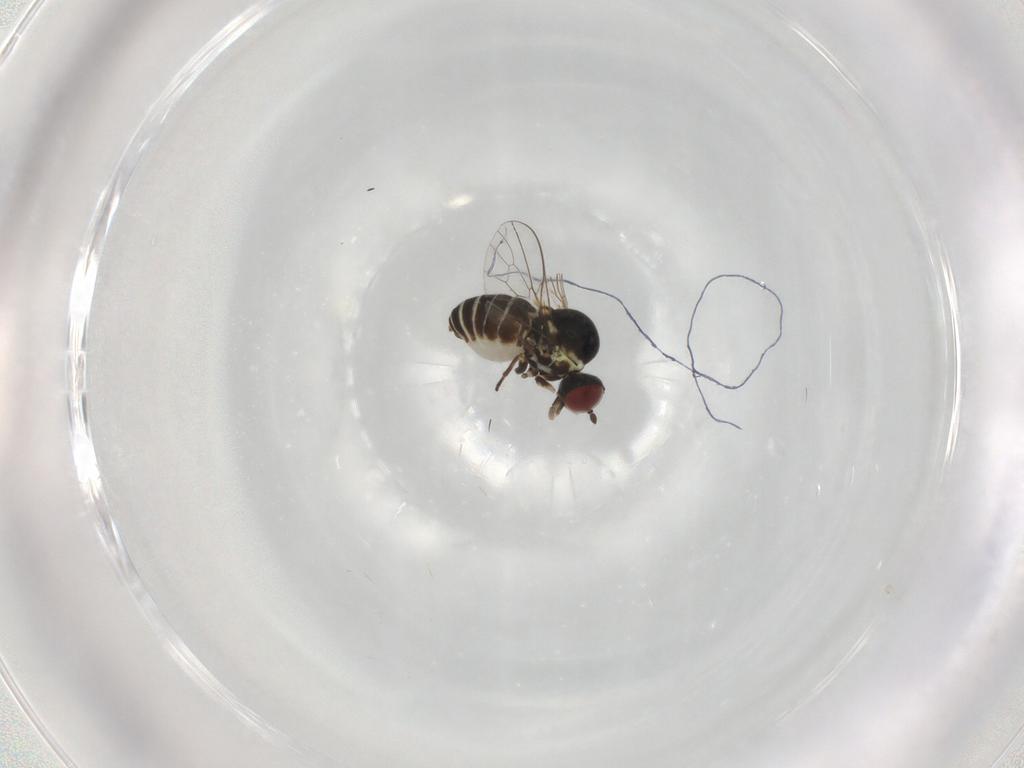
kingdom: Animalia
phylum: Arthropoda
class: Insecta
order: Diptera
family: Mythicomyiidae
